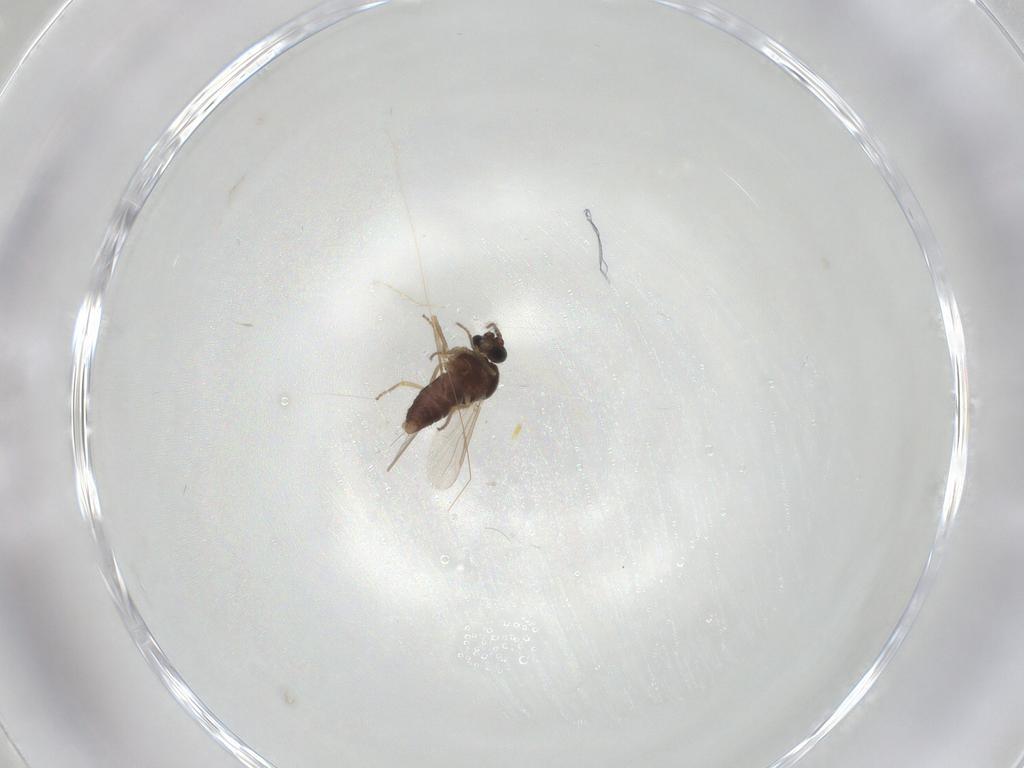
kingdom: Animalia
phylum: Arthropoda
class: Insecta
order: Diptera
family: Ceratopogonidae
